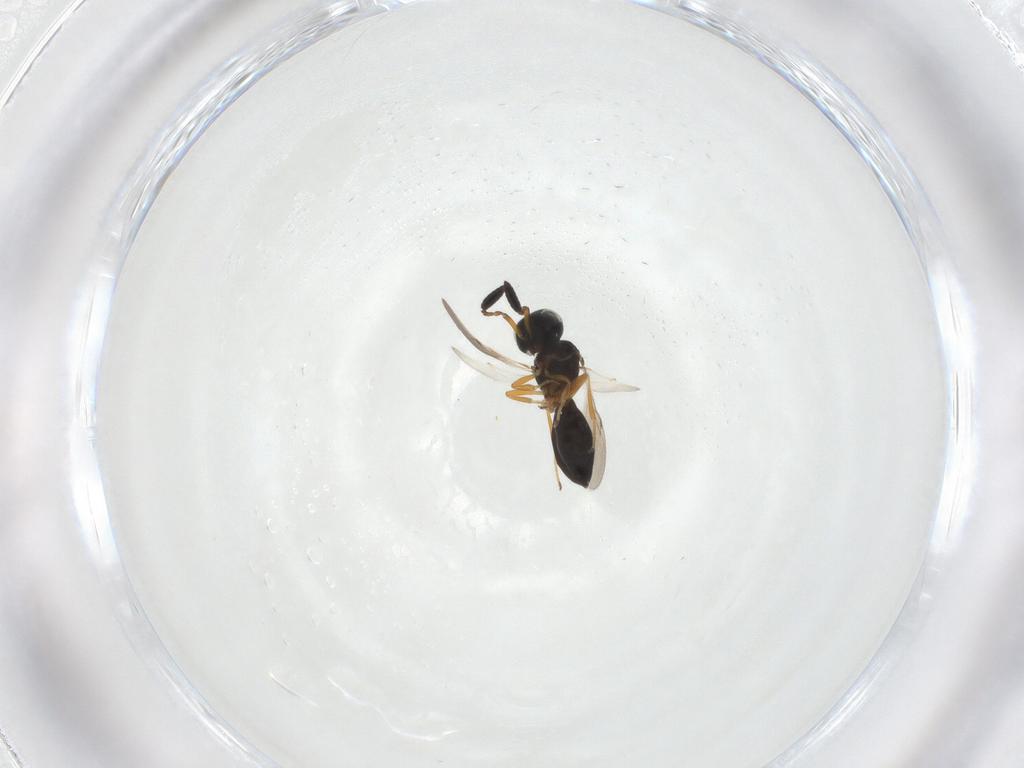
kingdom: Animalia
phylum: Arthropoda
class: Insecta
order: Hymenoptera
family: Scelionidae
